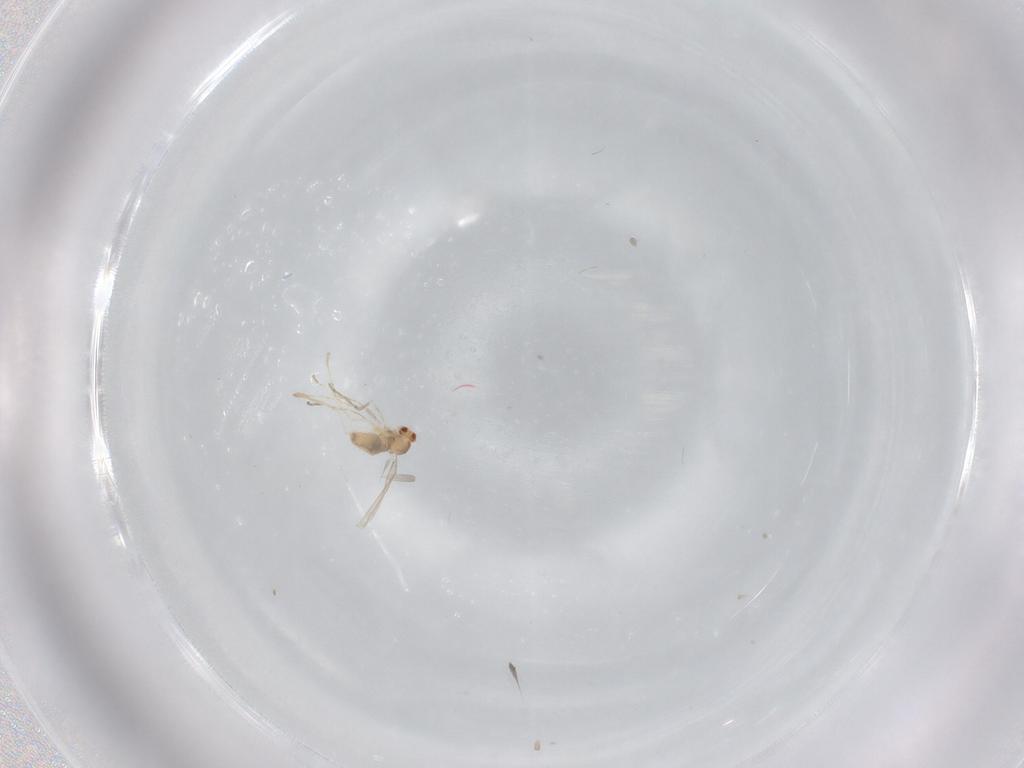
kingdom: Animalia
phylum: Arthropoda
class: Insecta
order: Diptera
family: Cecidomyiidae
